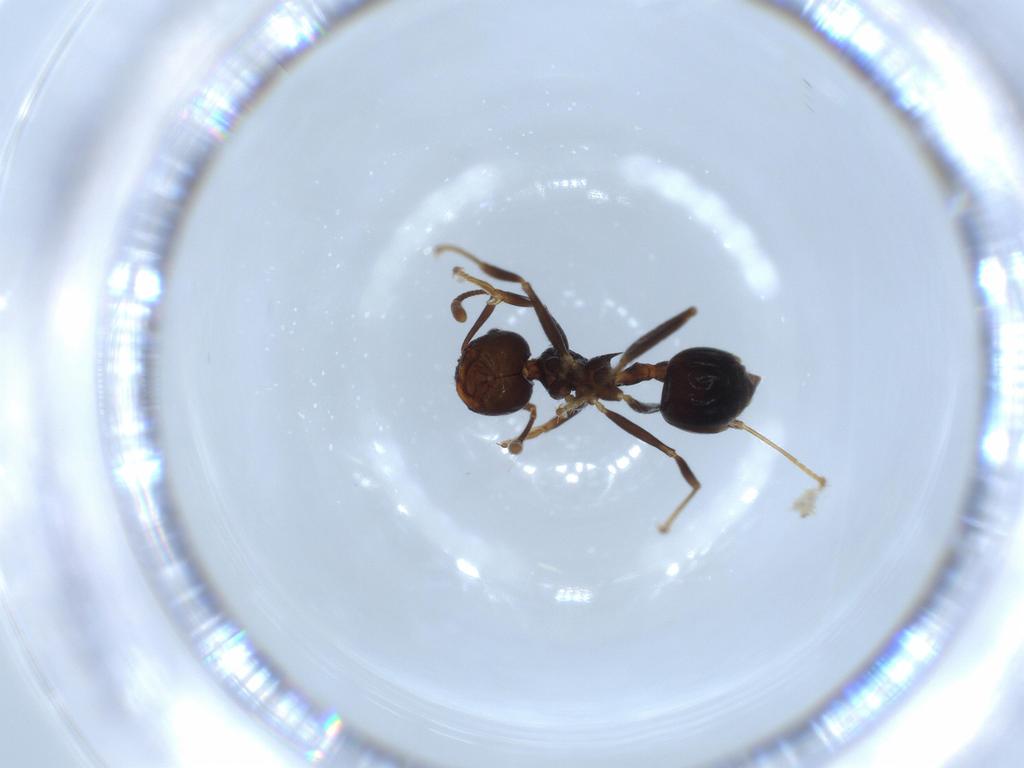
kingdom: Animalia
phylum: Arthropoda
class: Insecta
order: Hymenoptera
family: Formicidae
